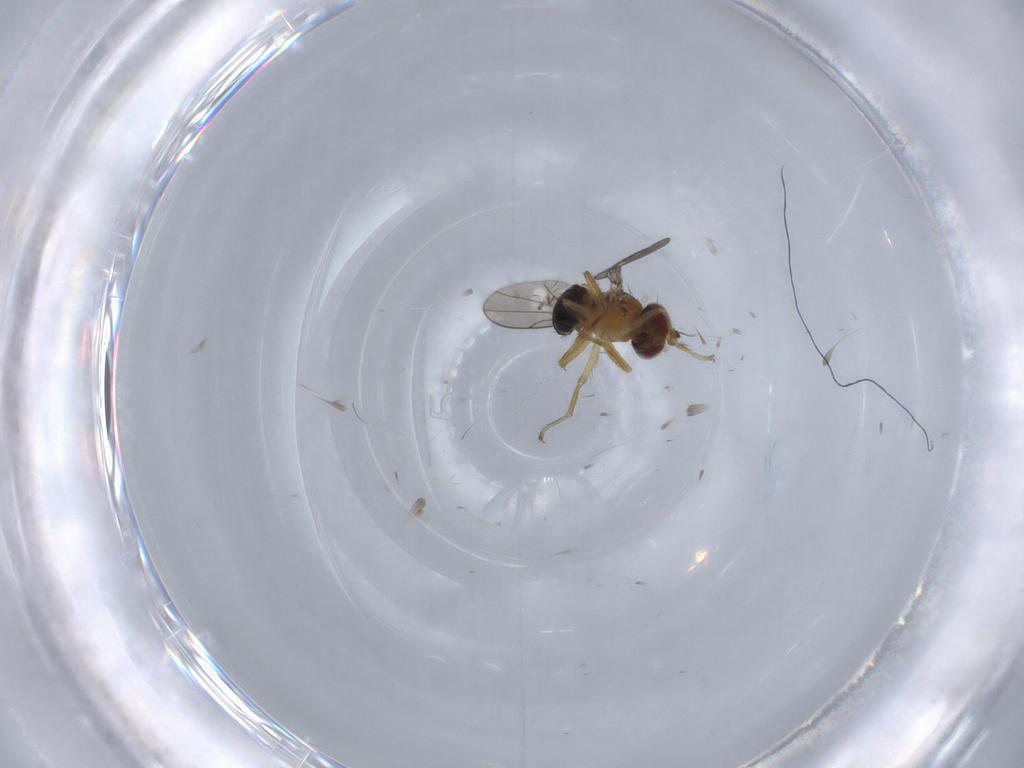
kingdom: Animalia
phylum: Arthropoda
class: Insecta
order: Diptera
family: Ephydridae
